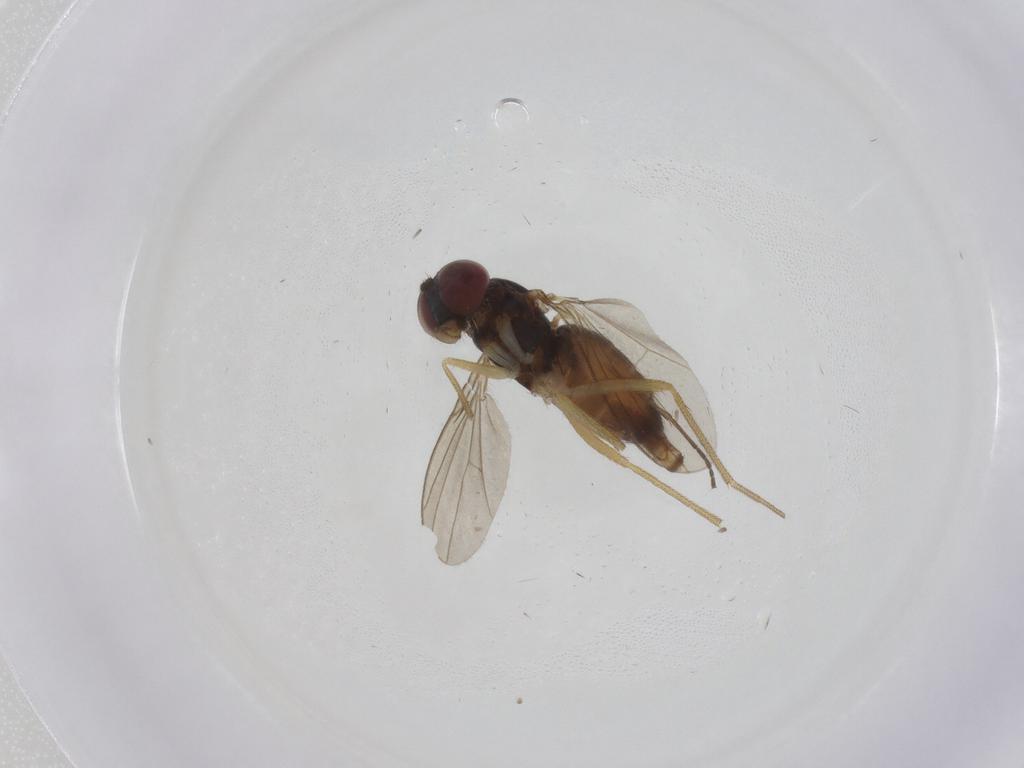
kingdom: Animalia
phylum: Arthropoda
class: Insecta
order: Diptera
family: Dolichopodidae
